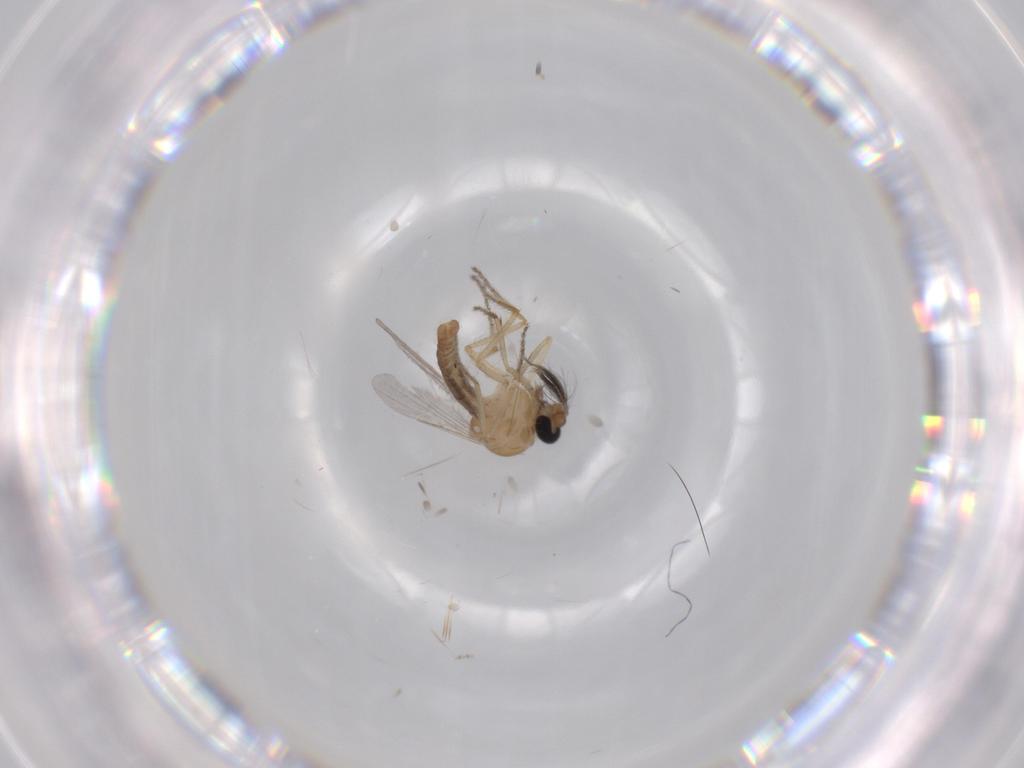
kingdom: Animalia
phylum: Arthropoda
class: Insecta
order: Diptera
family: Ceratopogonidae
